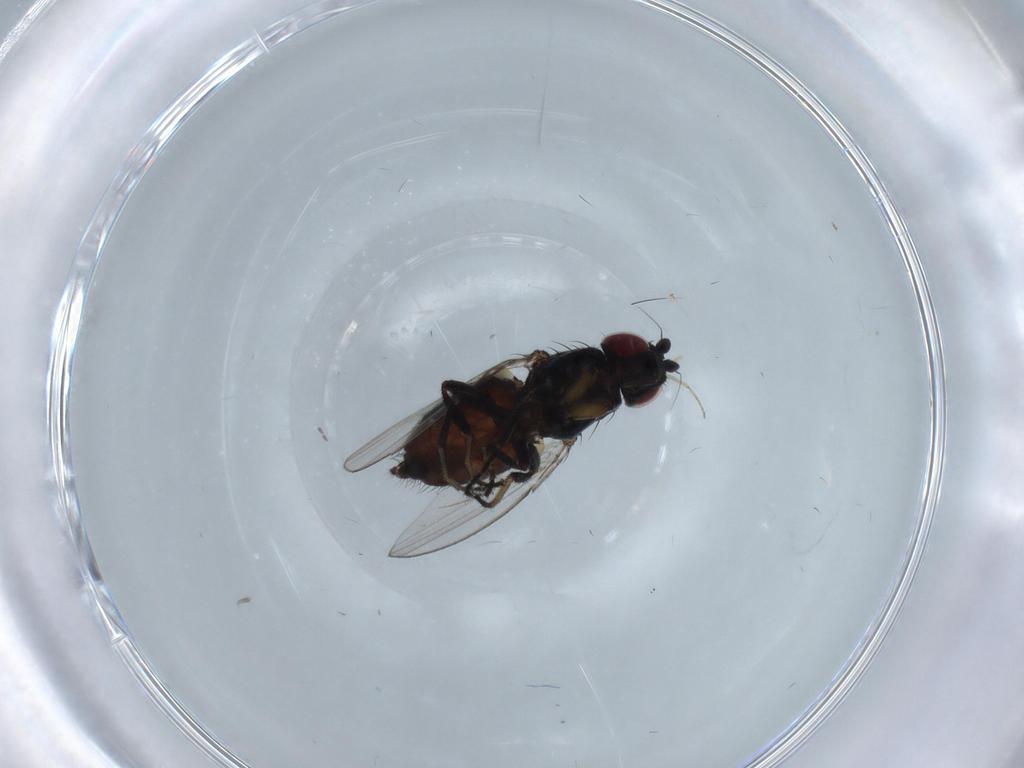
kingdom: Animalia
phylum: Arthropoda
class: Insecta
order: Diptera
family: Milichiidae
